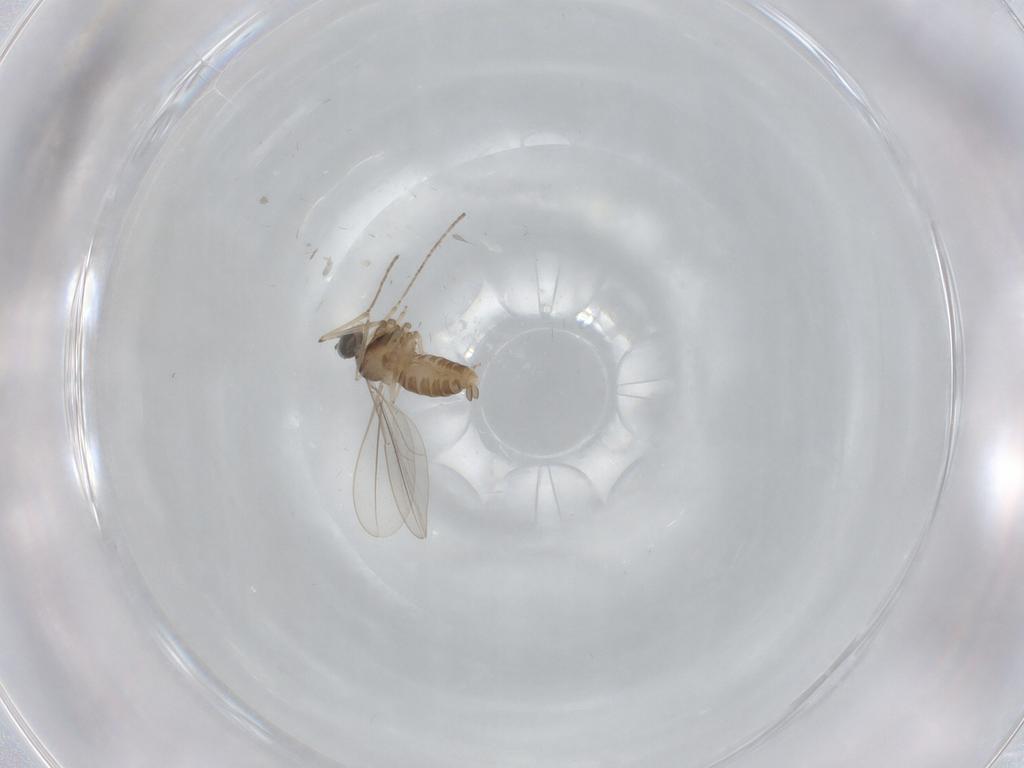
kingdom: Animalia
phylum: Arthropoda
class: Insecta
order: Diptera
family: Cecidomyiidae
